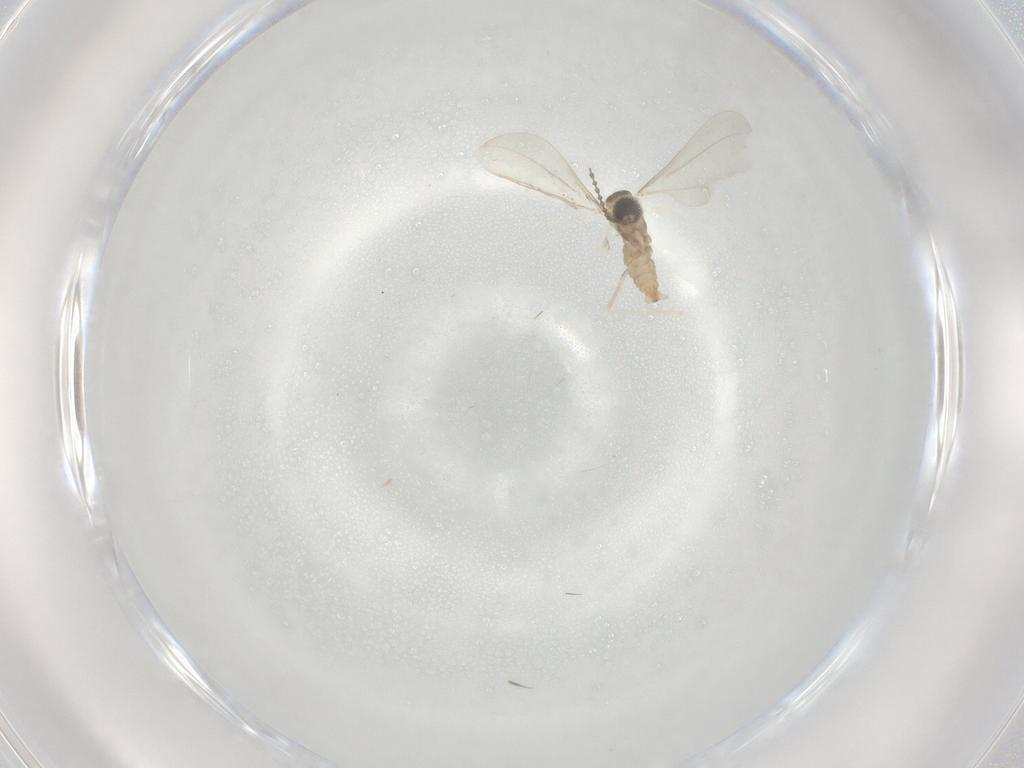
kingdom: Animalia
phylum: Arthropoda
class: Insecta
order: Diptera
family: Cecidomyiidae
